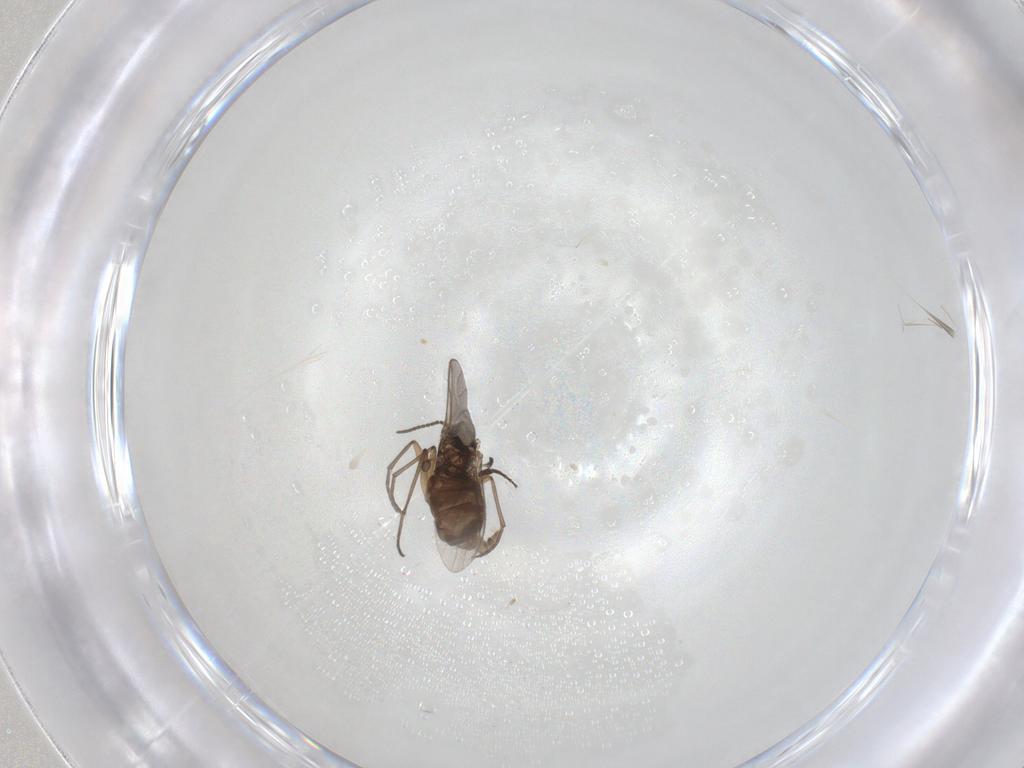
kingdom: Animalia
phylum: Arthropoda
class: Insecta
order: Diptera
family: Sciaridae
